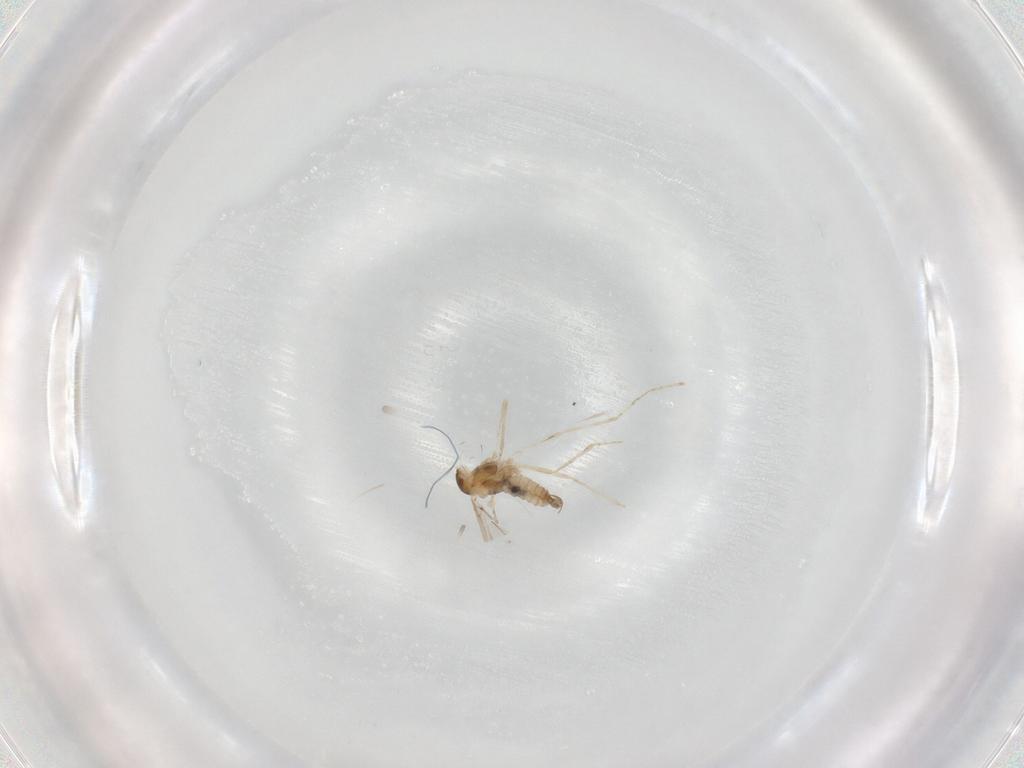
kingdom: Animalia
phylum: Arthropoda
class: Insecta
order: Diptera
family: Cecidomyiidae
